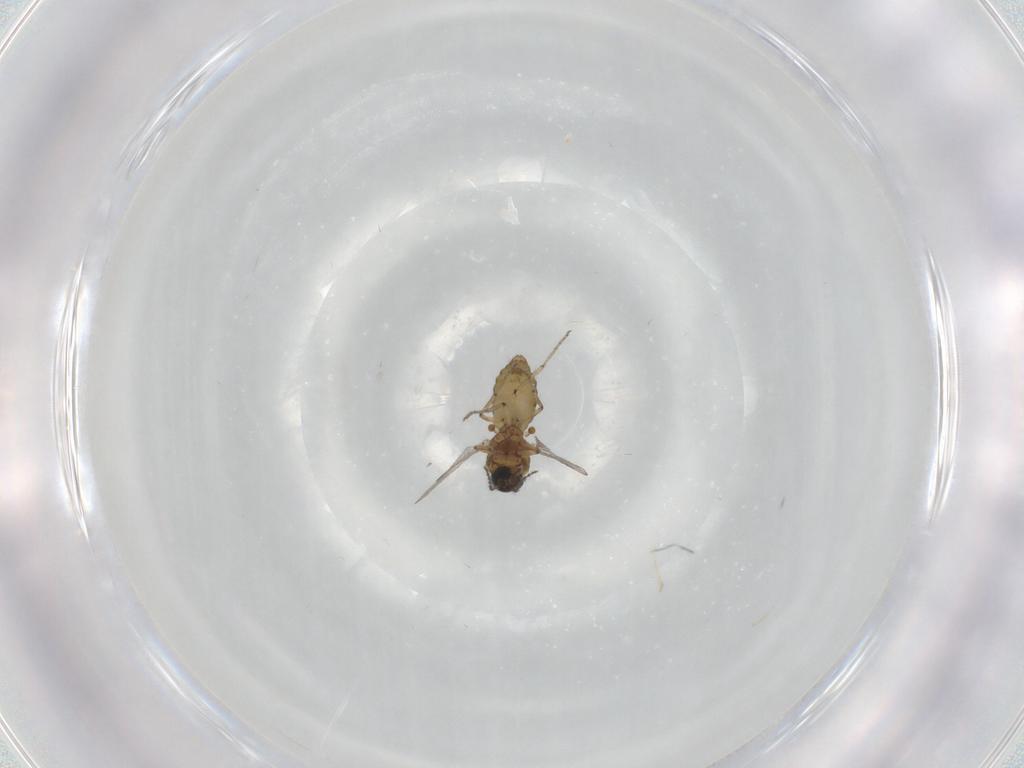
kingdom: Animalia
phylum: Arthropoda
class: Insecta
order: Diptera
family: Ceratopogonidae
